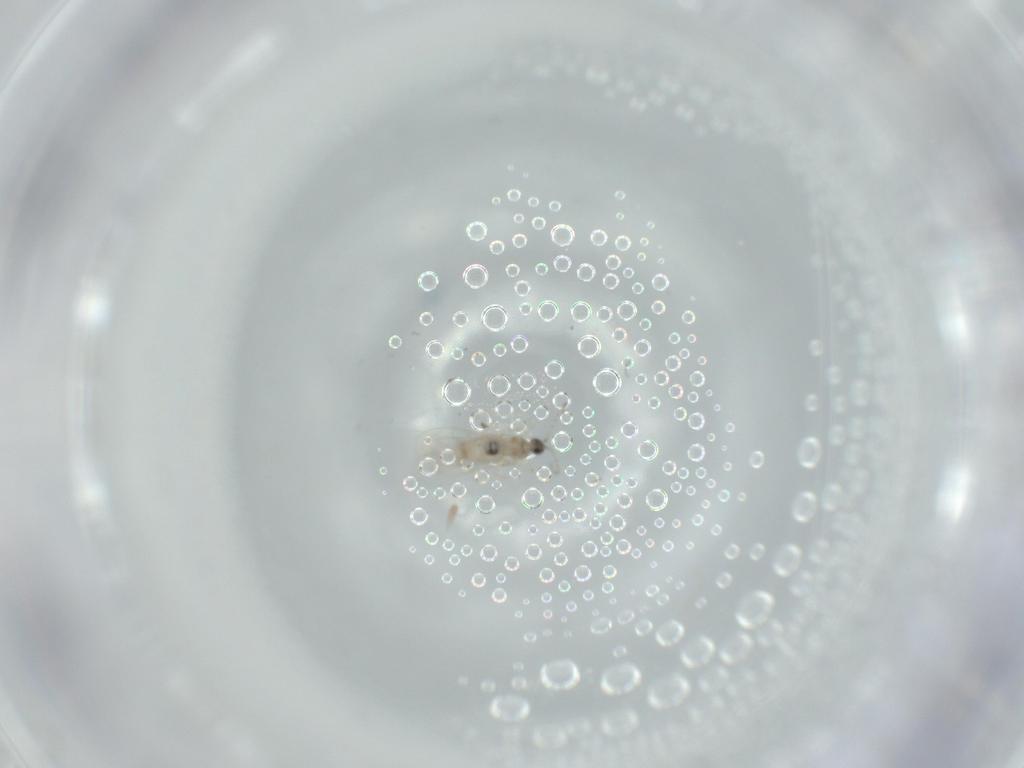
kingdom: Animalia
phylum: Arthropoda
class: Insecta
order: Diptera
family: Cecidomyiidae
